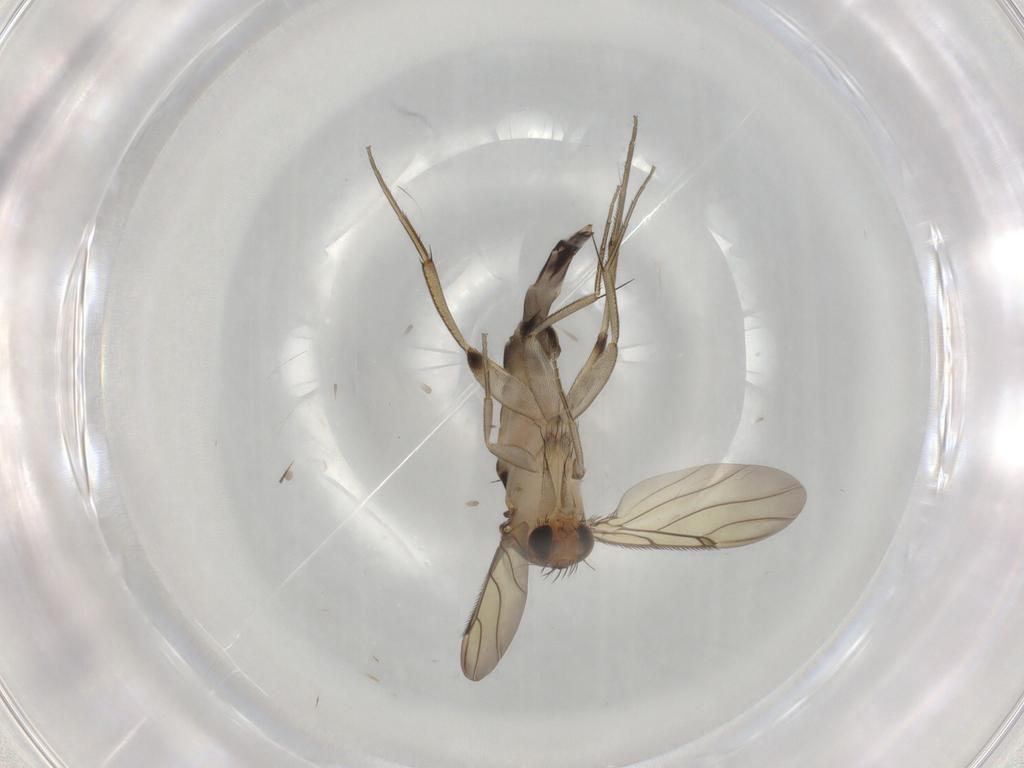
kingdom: Animalia
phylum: Arthropoda
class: Insecta
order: Diptera
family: Phoridae
